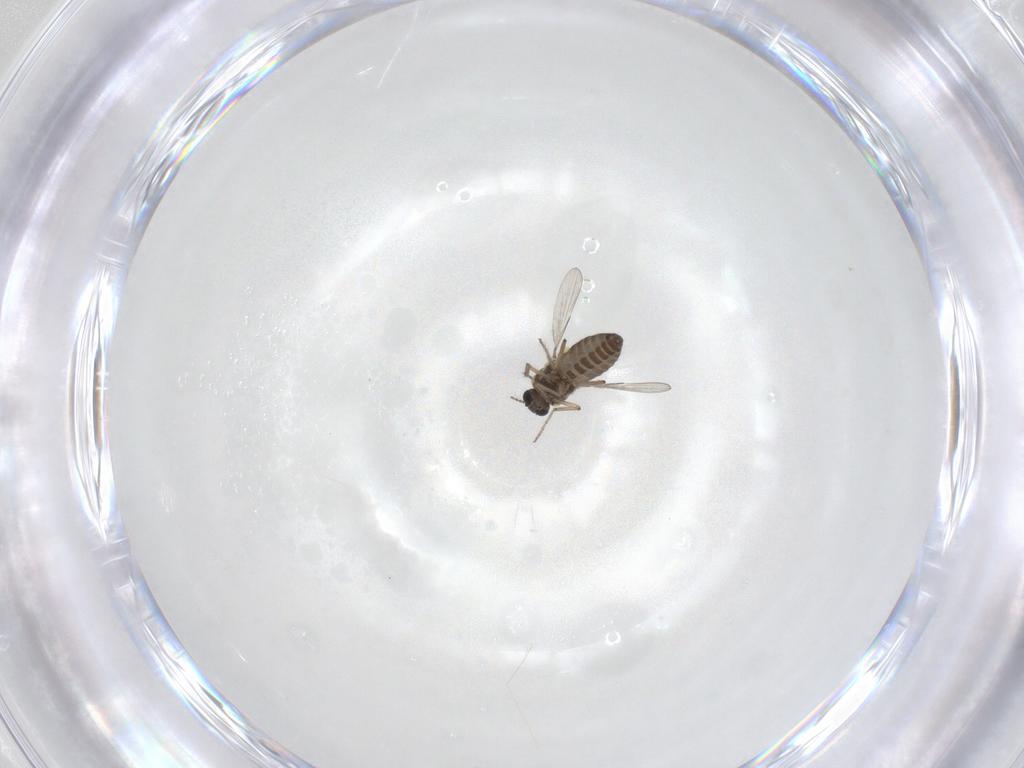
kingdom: Animalia
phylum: Arthropoda
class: Insecta
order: Diptera
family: Ceratopogonidae
